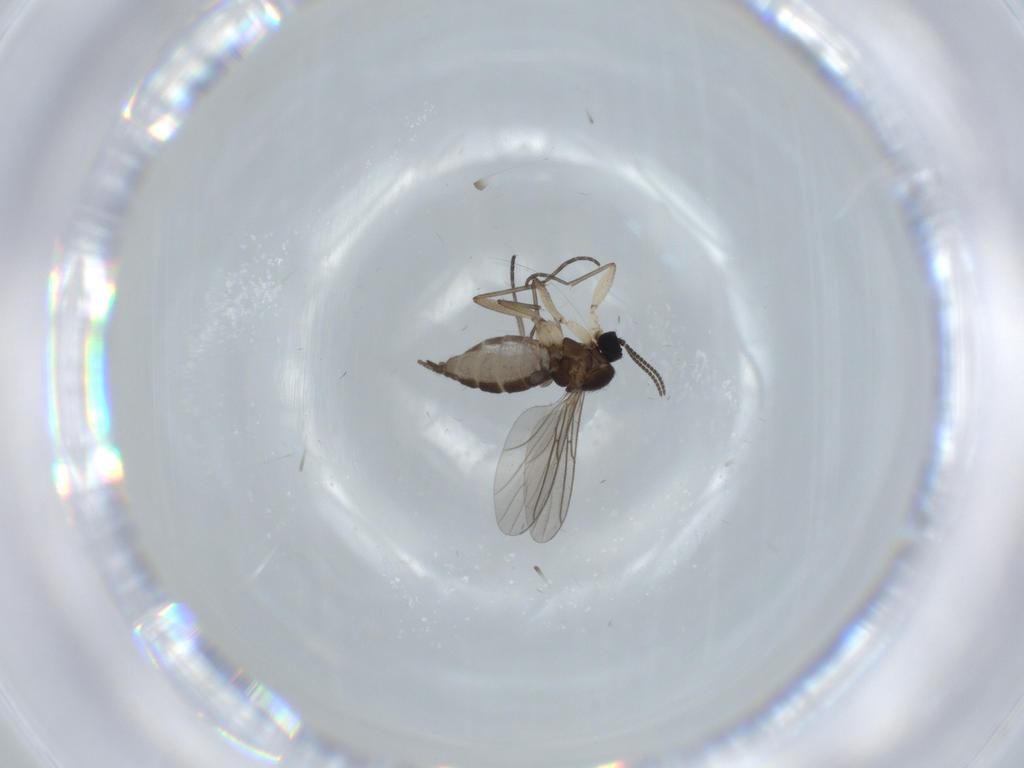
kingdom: Animalia
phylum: Arthropoda
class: Insecta
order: Diptera
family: Sciaridae
